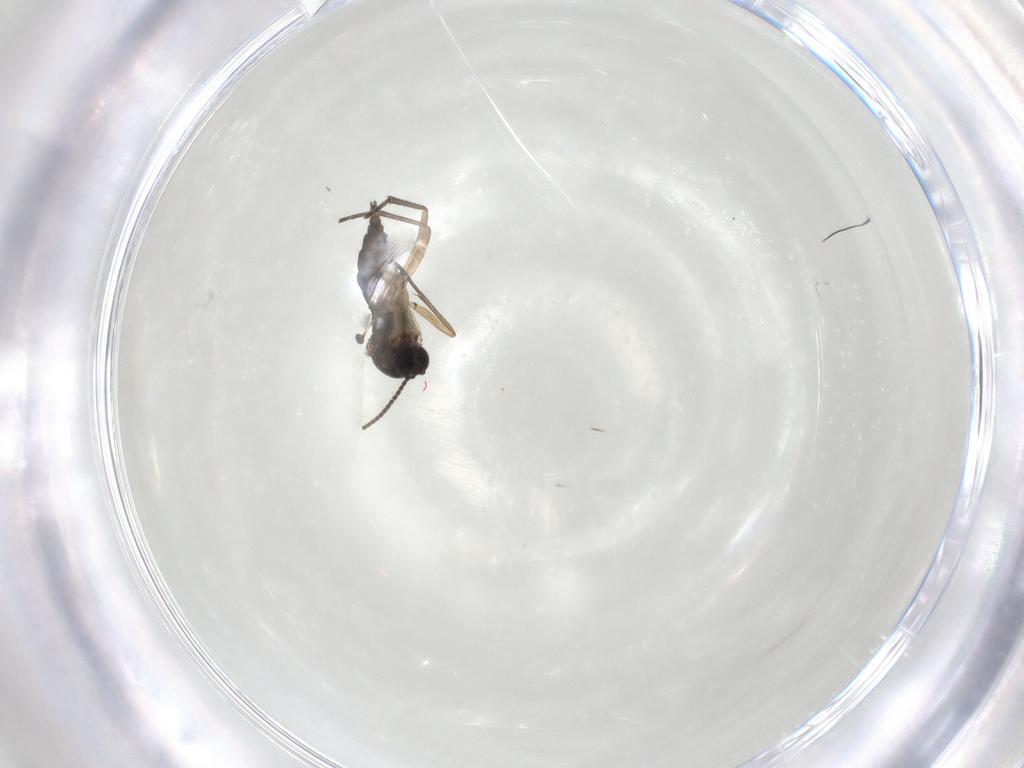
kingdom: Animalia
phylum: Arthropoda
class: Insecta
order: Diptera
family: Sciaridae
